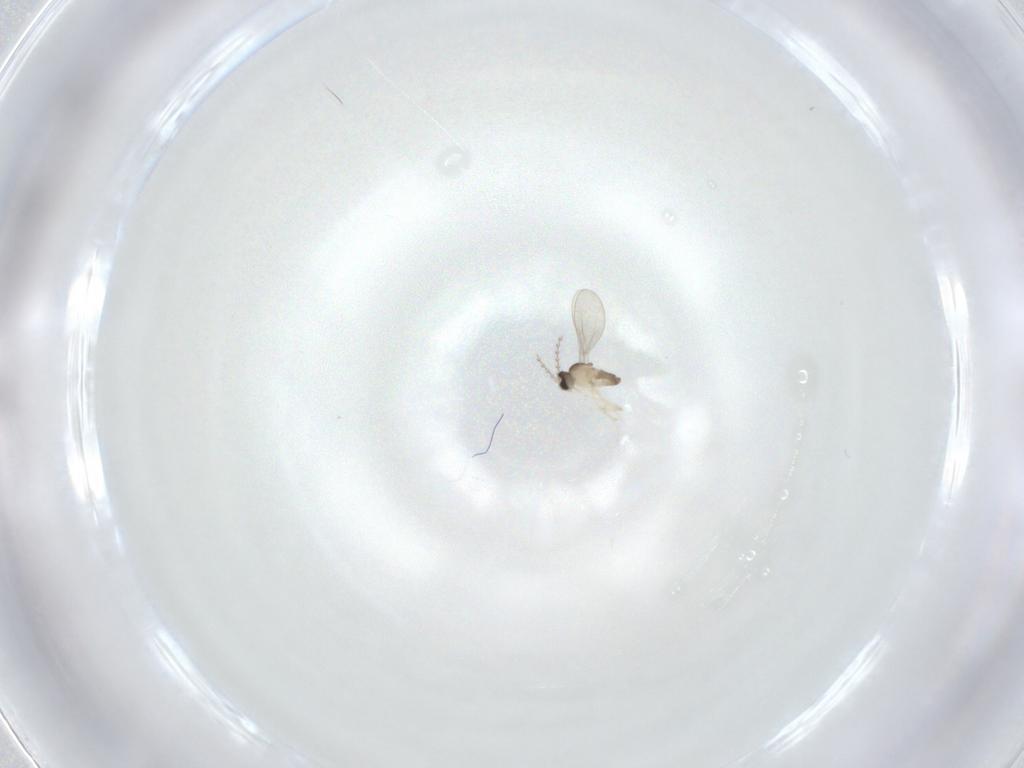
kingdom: Animalia
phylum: Arthropoda
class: Insecta
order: Diptera
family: Cecidomyiidae
